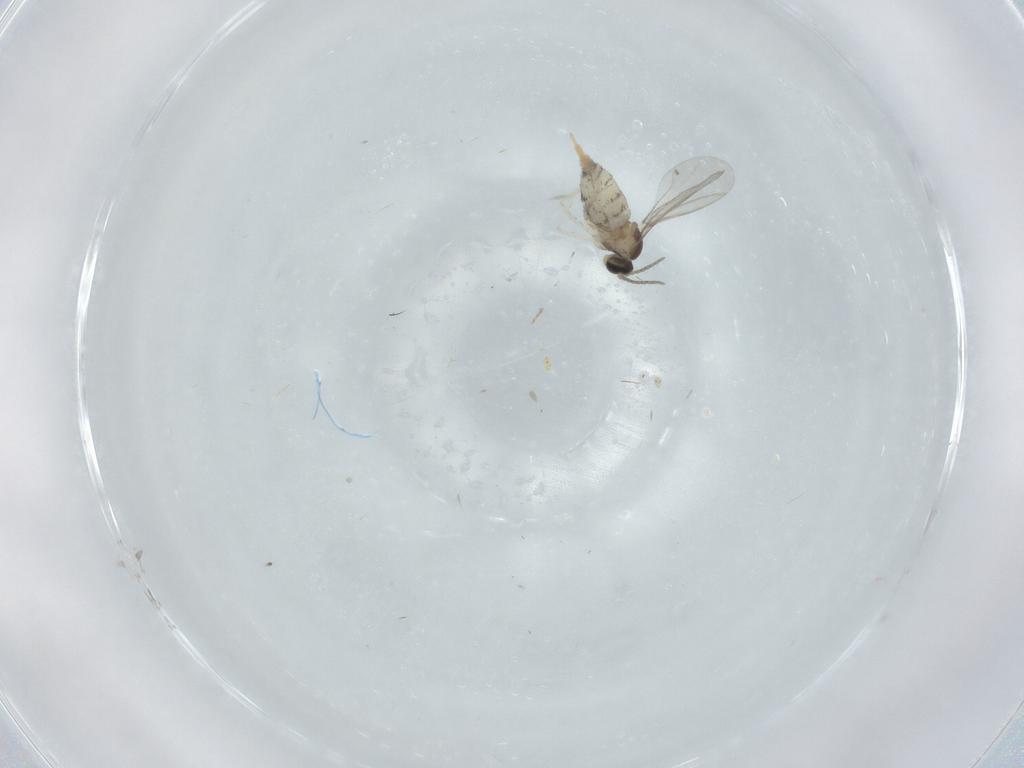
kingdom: Animalia
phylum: Arthropoda
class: Insecta
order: Diptera
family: Cecidomyiidae
